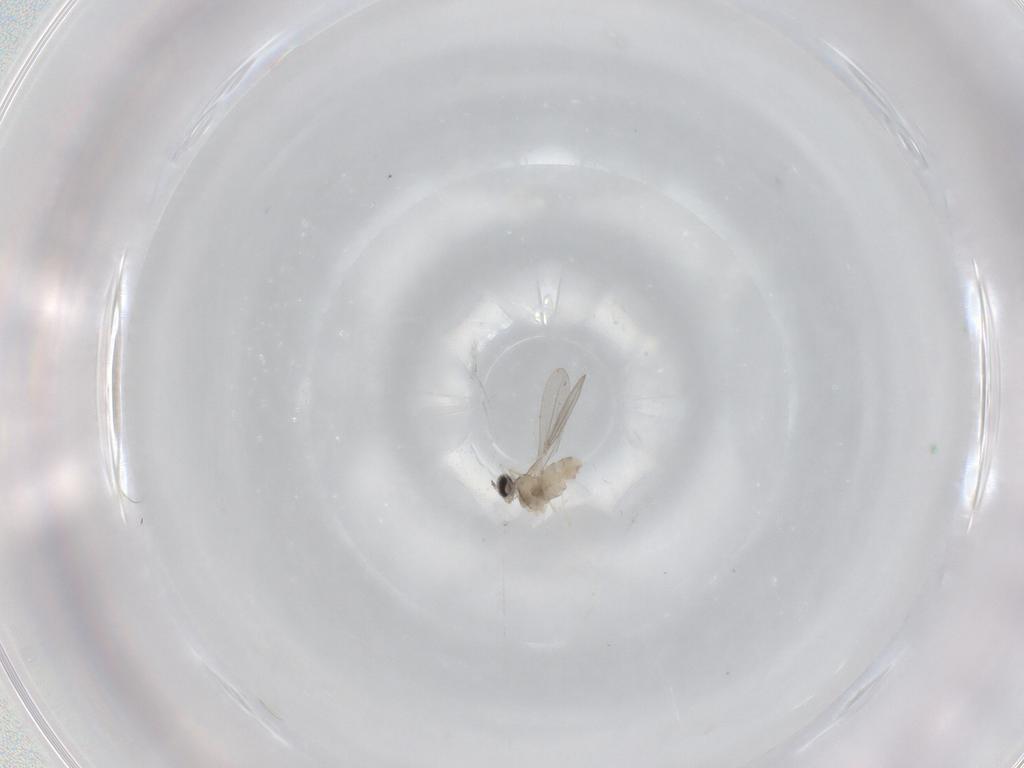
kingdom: Animalia
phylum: Arthropoda
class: Insecta
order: Diptera
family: Cecidomyiidae
